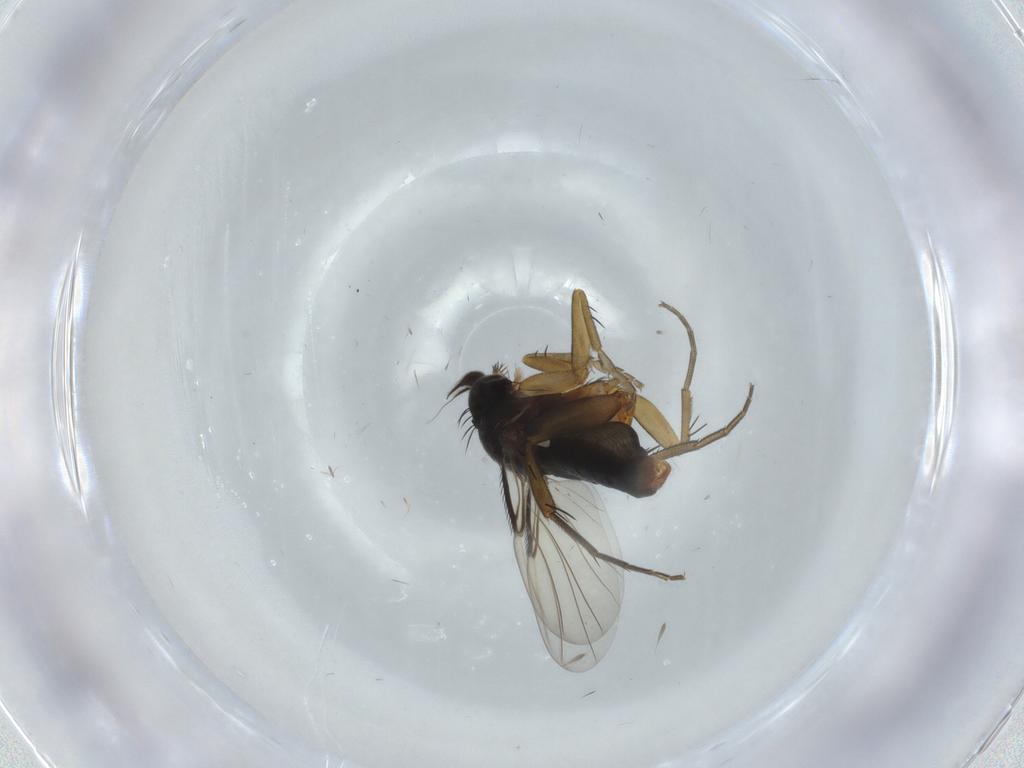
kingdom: Animalia
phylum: Arthropoda
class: Insecta
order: Diptera
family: Phoridae
